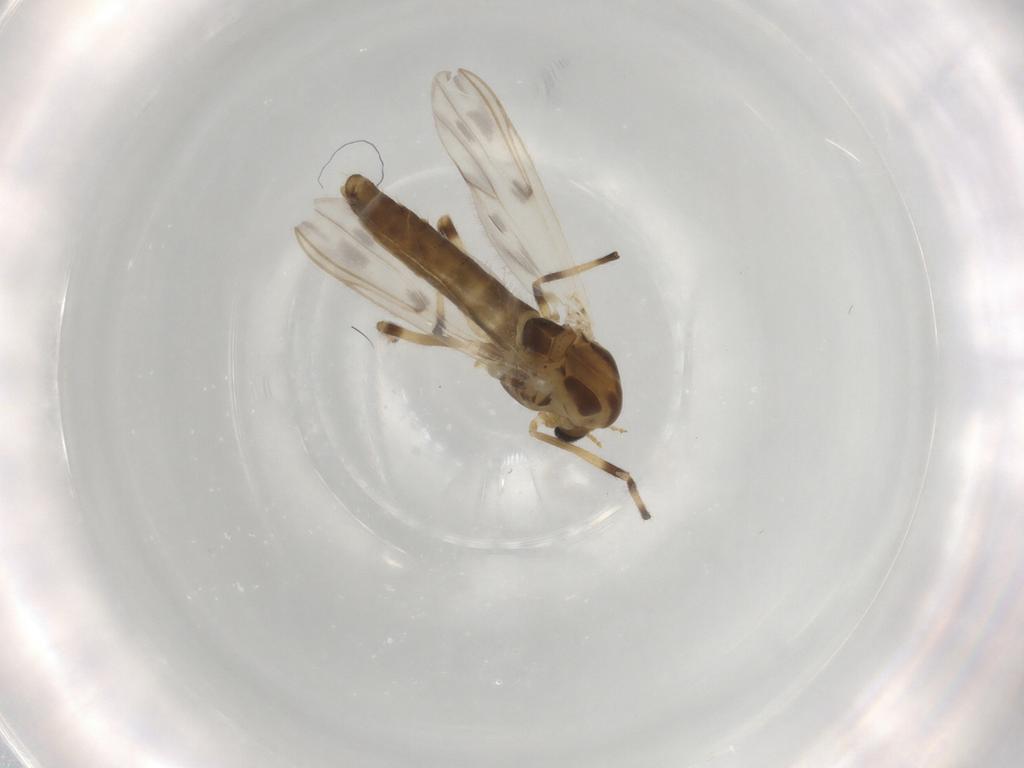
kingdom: Animalia
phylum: Arthropoda
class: Insecta
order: Diptera
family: Chironomidae
